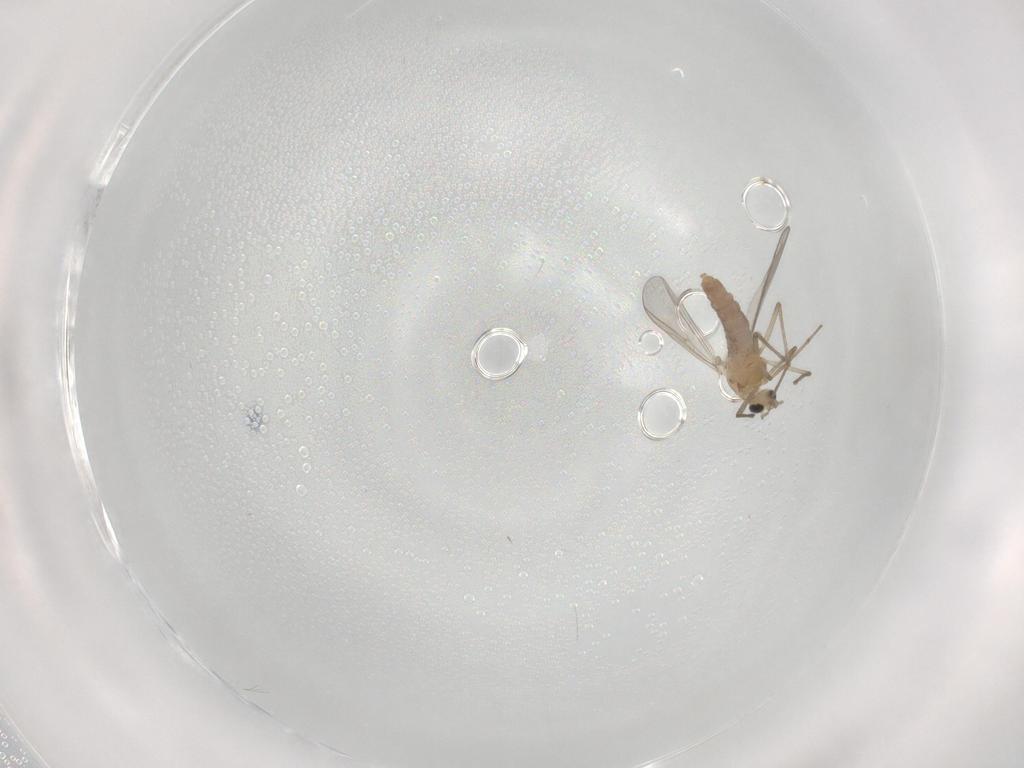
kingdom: Animalia
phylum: Arthropoda
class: Insecta
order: Diptera
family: Chironomidae
